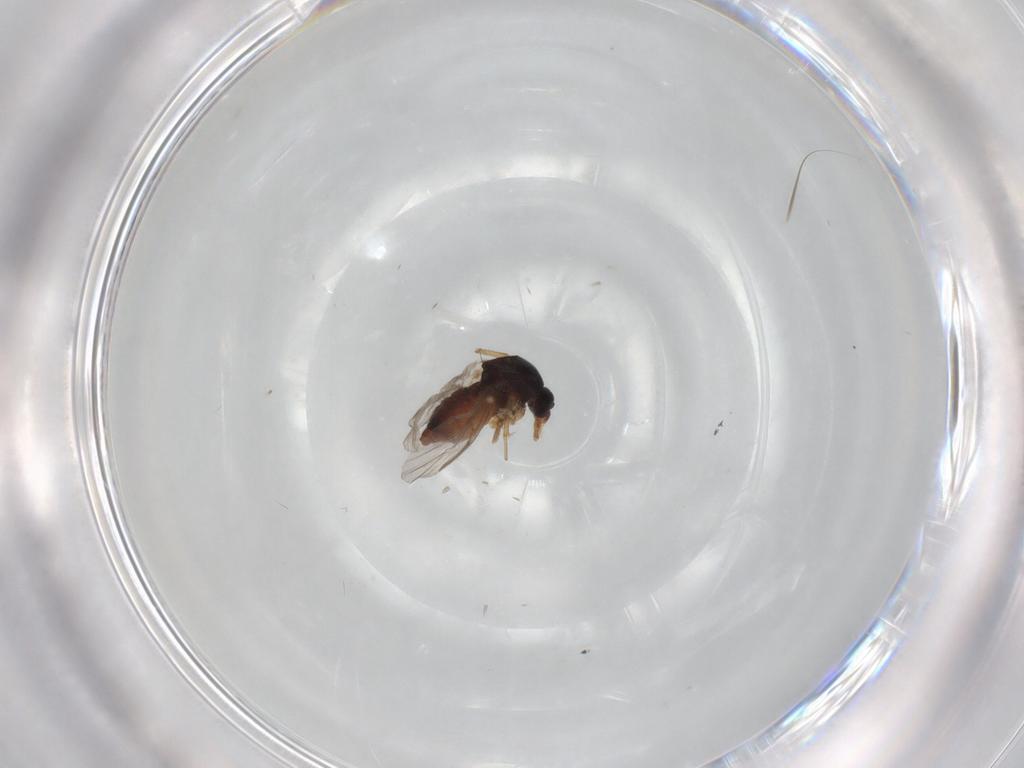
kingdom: Animalia
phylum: Arthropoda
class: Insecta
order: Diptera
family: Ceratopogonidae
